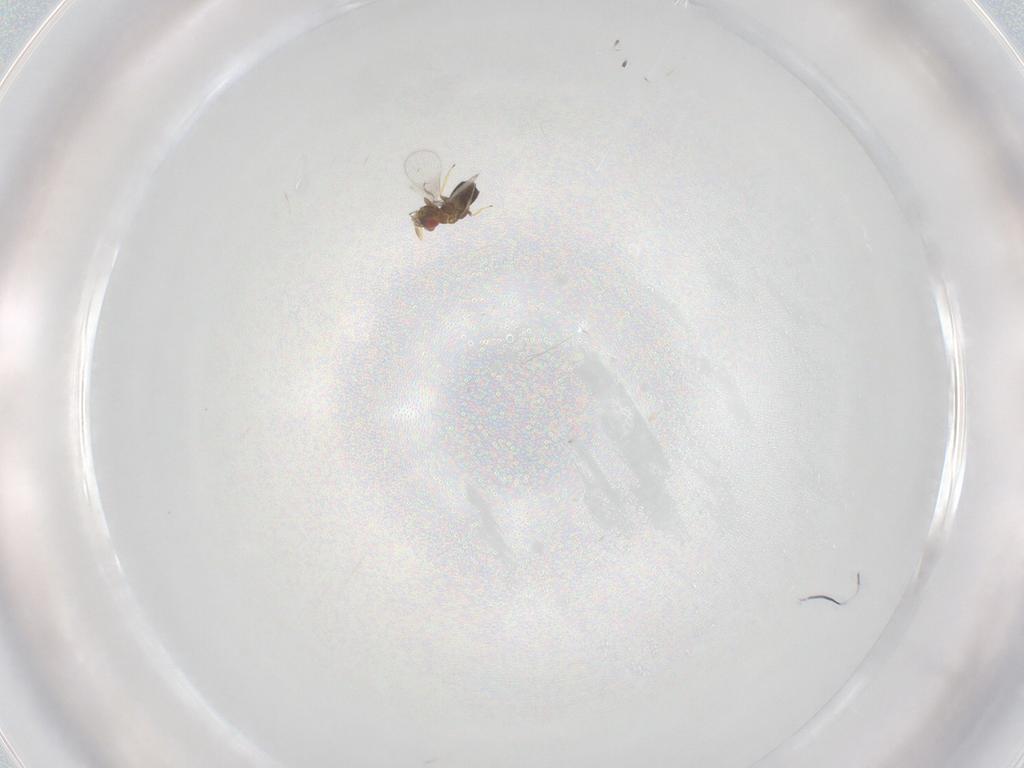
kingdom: Animalia
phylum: Arthropoda
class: Insecta
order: Hymenoptera
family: Trichogrammatidae
